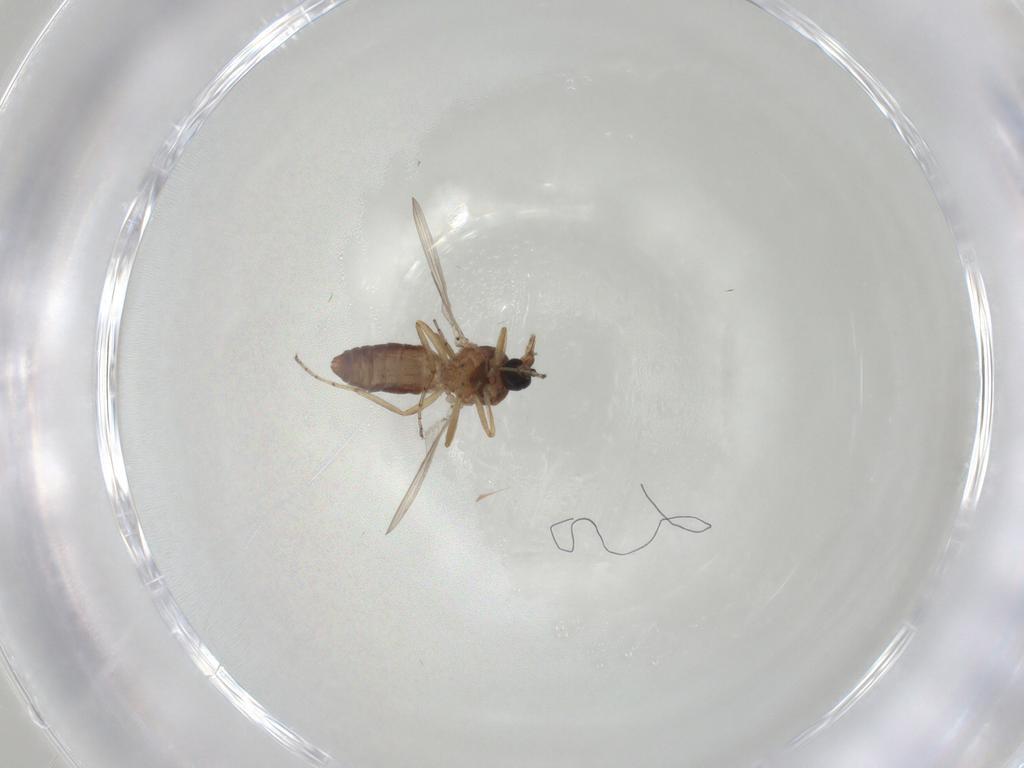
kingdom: Animalia
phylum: Arthropoda
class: Insecta
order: Diptera
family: Ceratopogonidae
